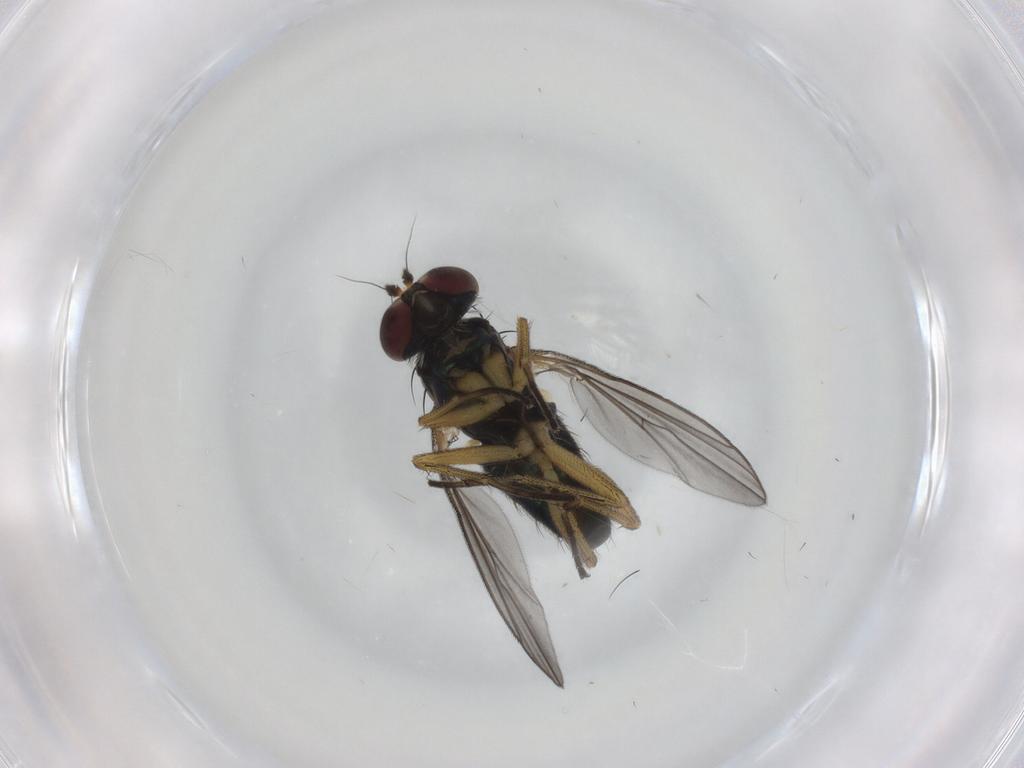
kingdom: Animalia
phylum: Arthropoda
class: Insecta
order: Diptera
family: Dolichopodidae
